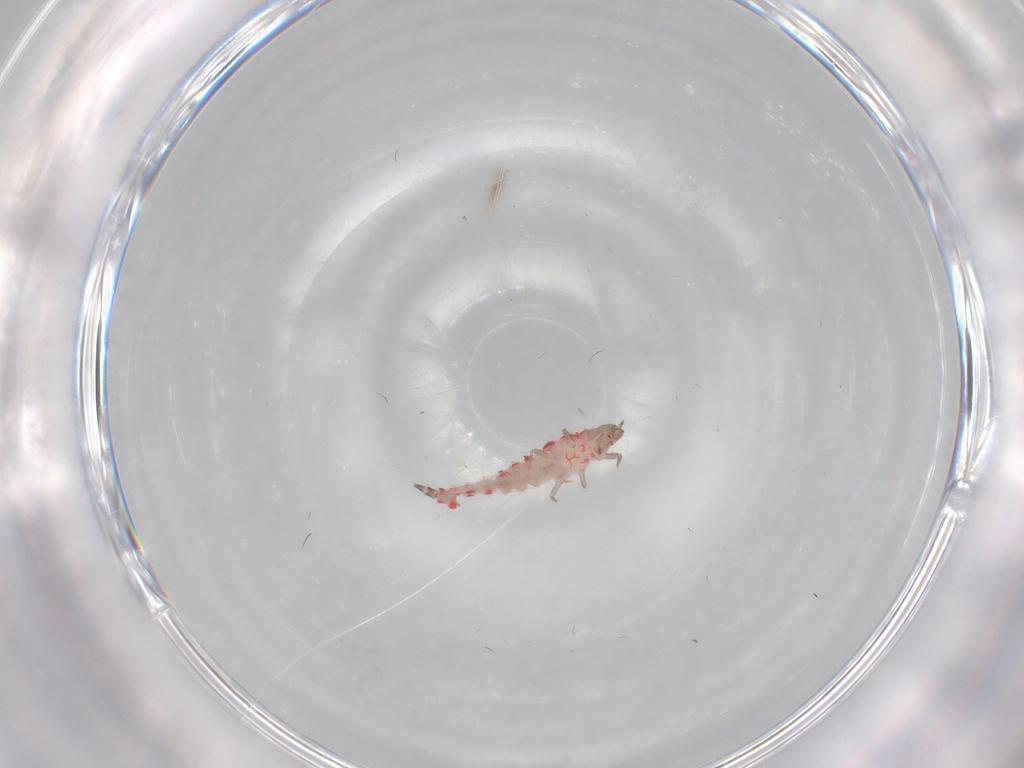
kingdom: Animalia
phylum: Arthropoda
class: Insecta
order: Thysanoptera
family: Phlaeothripidae
